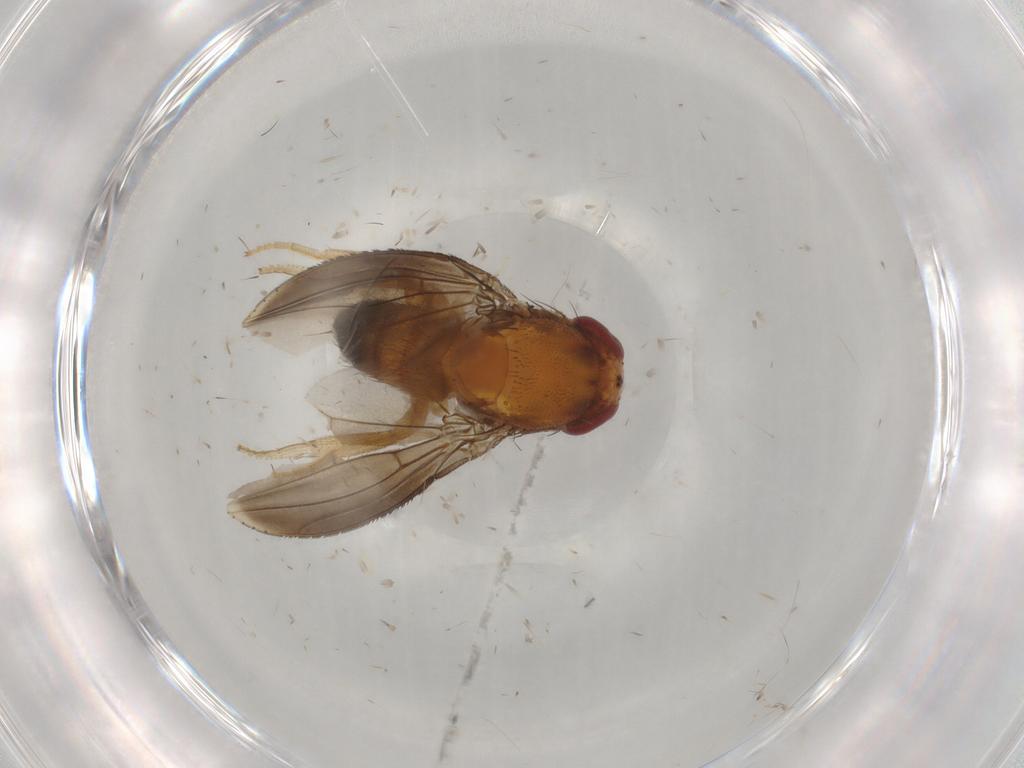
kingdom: Animalia
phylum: Arthropoda
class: Insecta
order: Diptera
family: Drosophilidae
